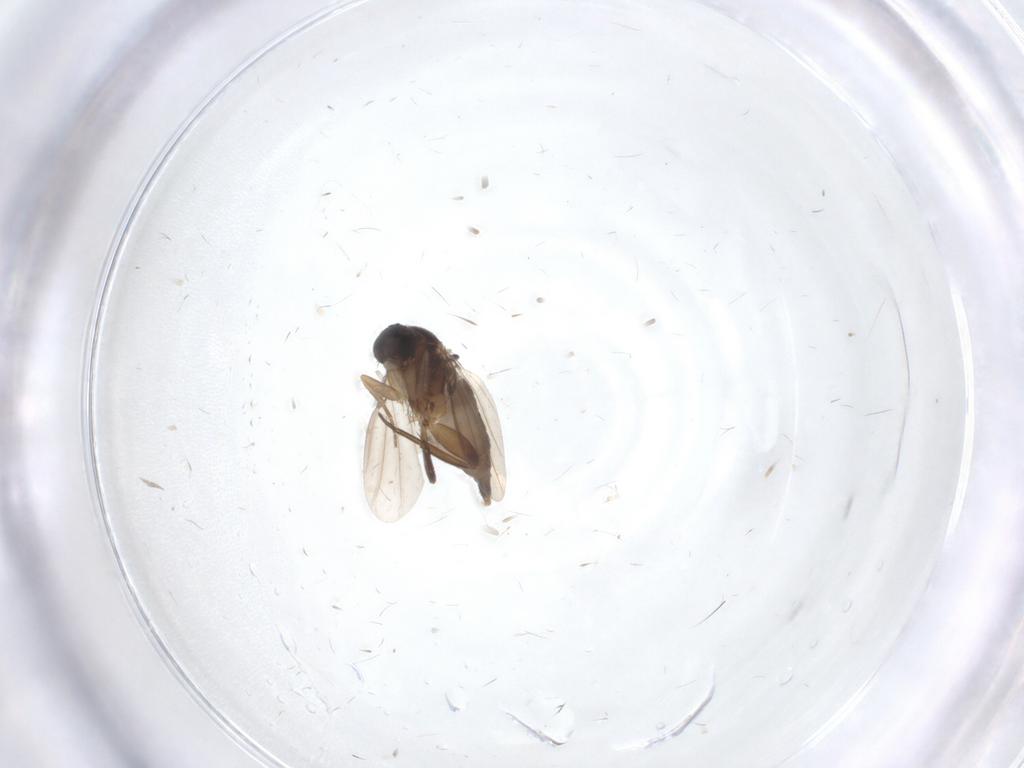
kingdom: Animalia
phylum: Arthropoda
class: Insecta
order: Diptera
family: Phoridae
